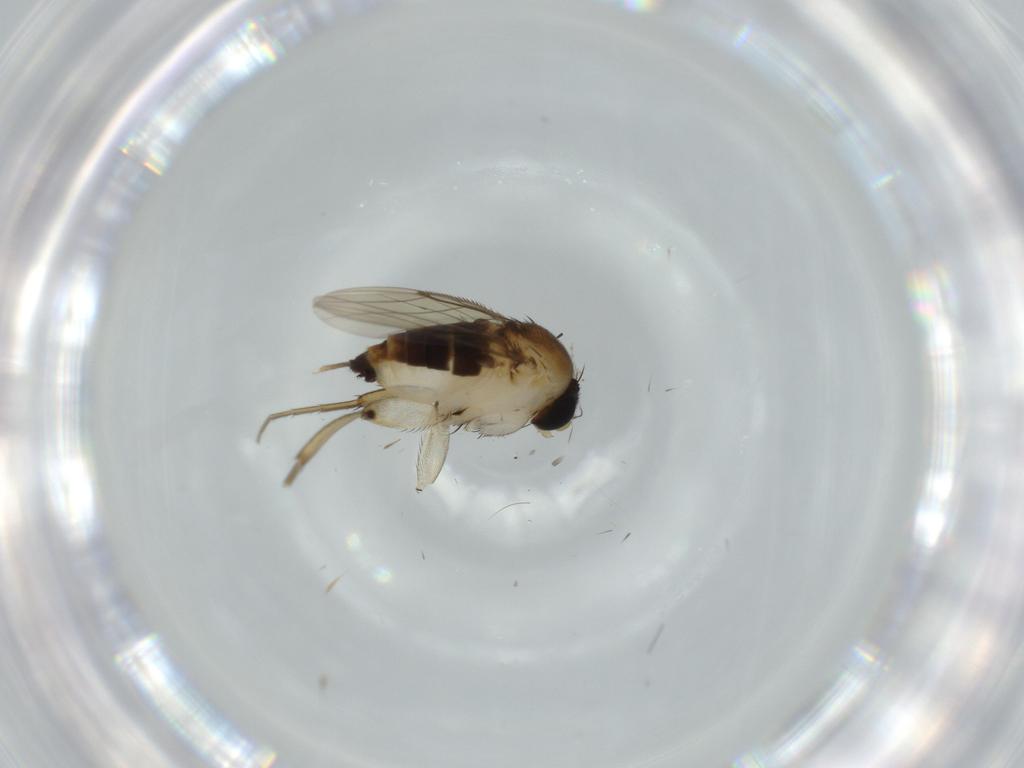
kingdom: Animalia
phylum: Arthropoda
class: Insecta
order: Diptera
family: Phoridae
